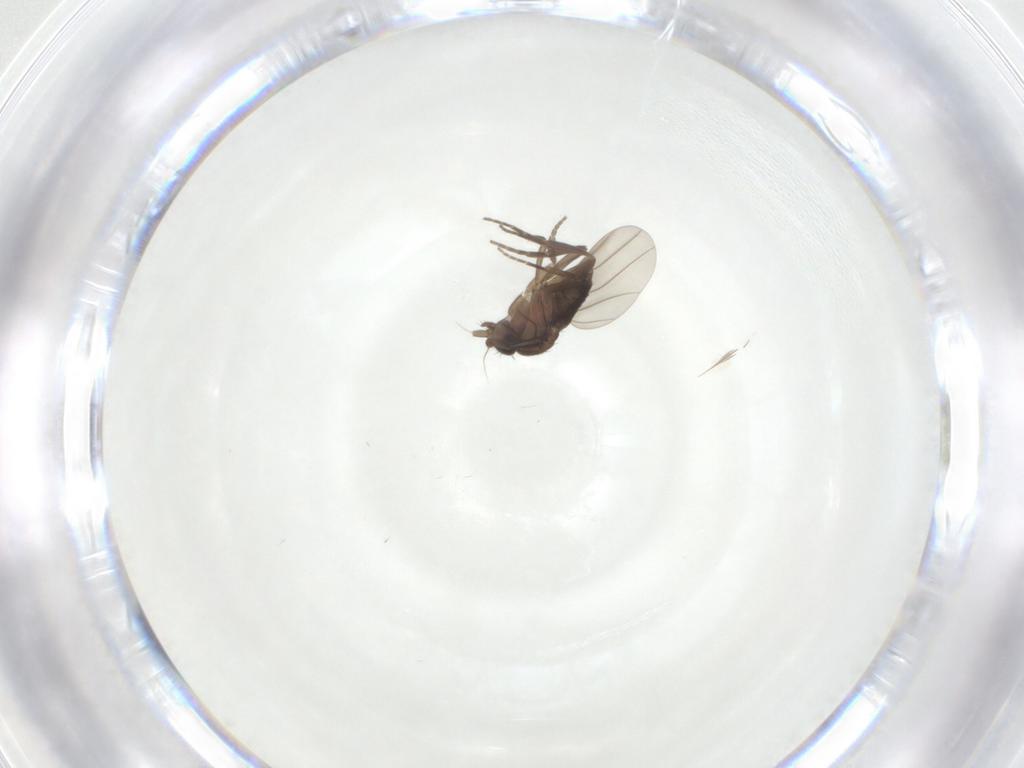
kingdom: Animalia
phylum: Arthropoda
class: Insecta
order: Diptera
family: Phoridae
